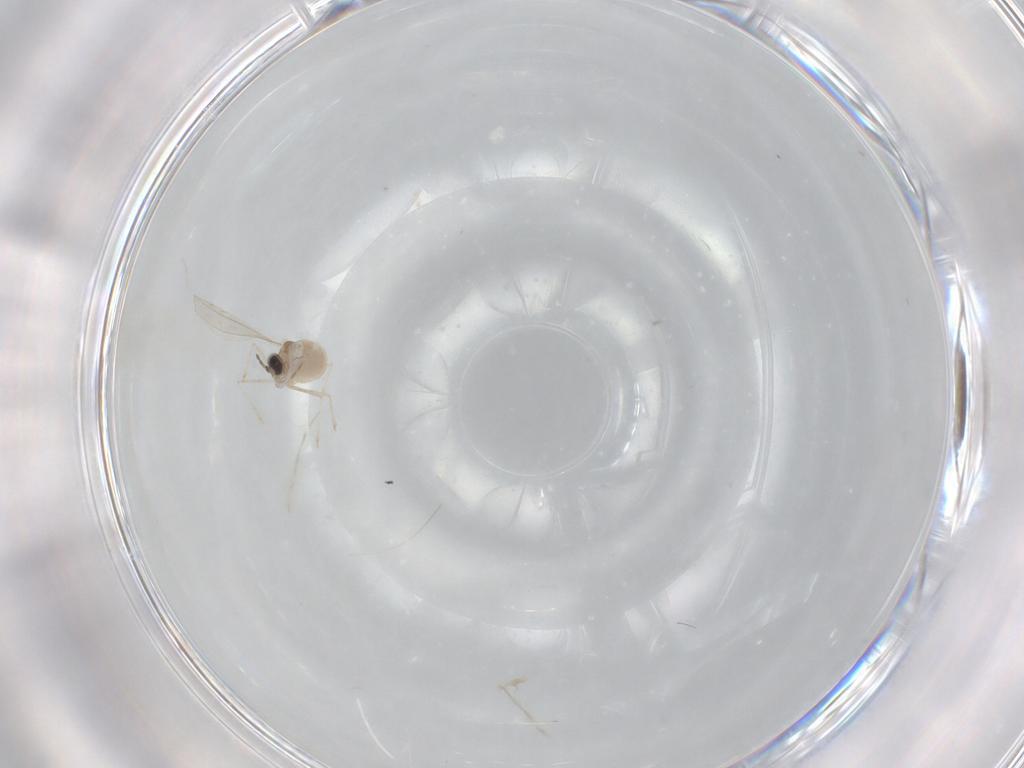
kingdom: Animalia
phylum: Arthropoda
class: Insecta
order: Diptera
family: Cecidomyiidae
